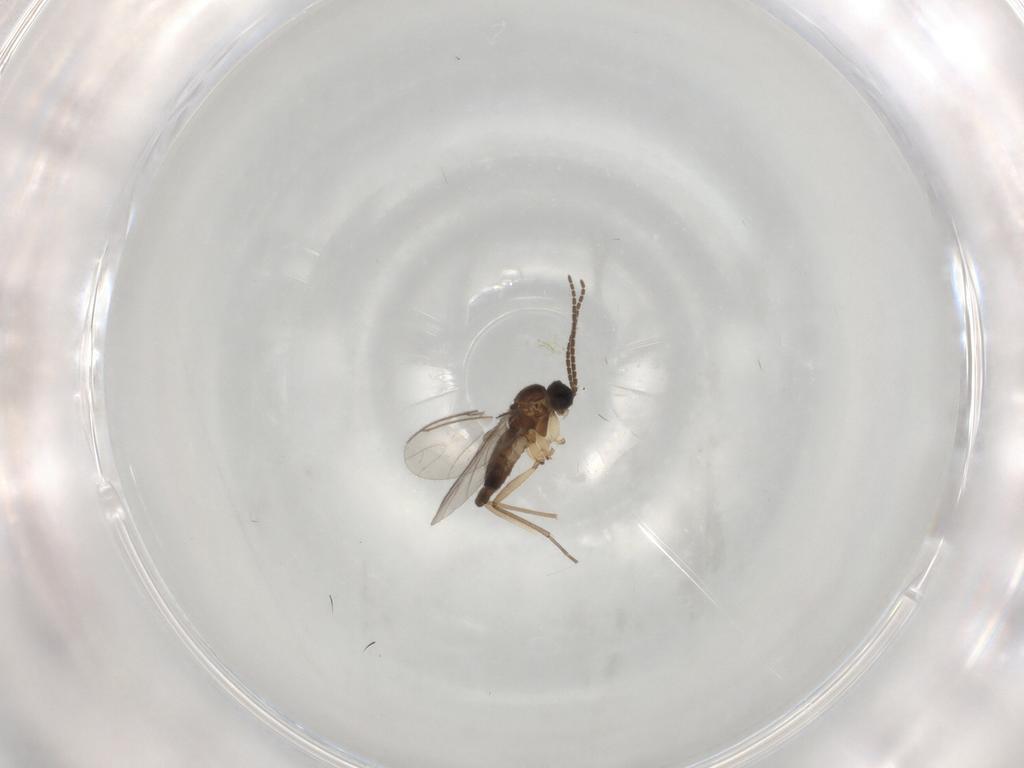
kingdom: Animalia
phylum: Arthropoda
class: Insecta
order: Diptera
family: Sciaridae
